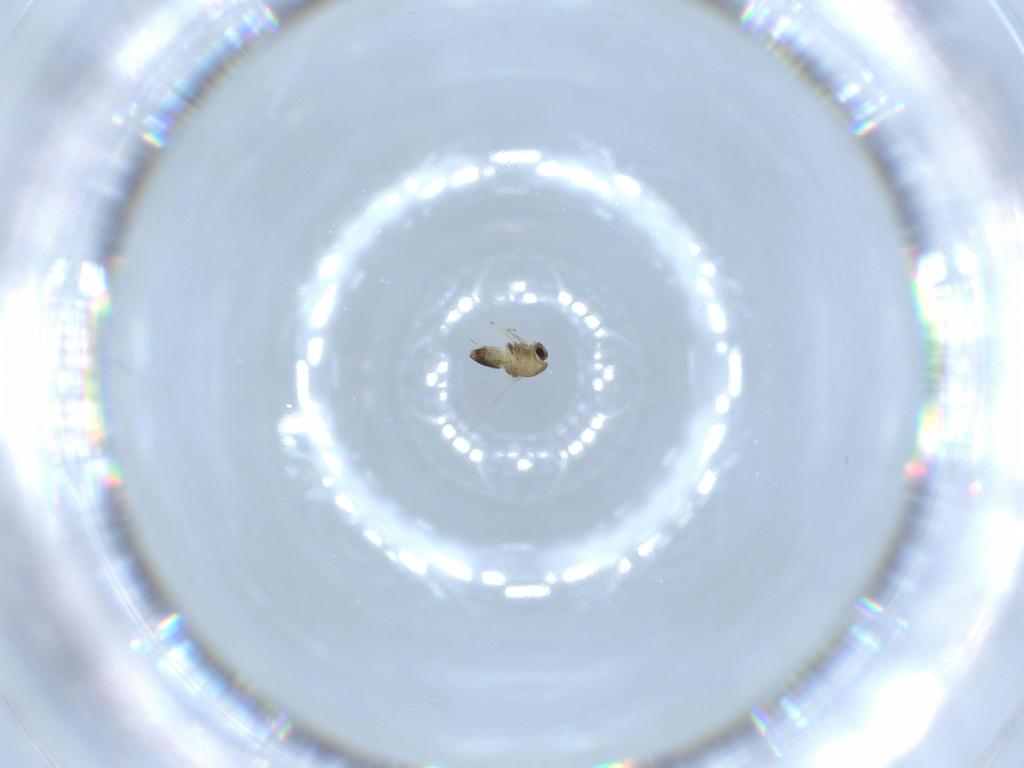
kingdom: Animalia
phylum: Arthropoda
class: Insecta
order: Diptera
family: Chironomidae
